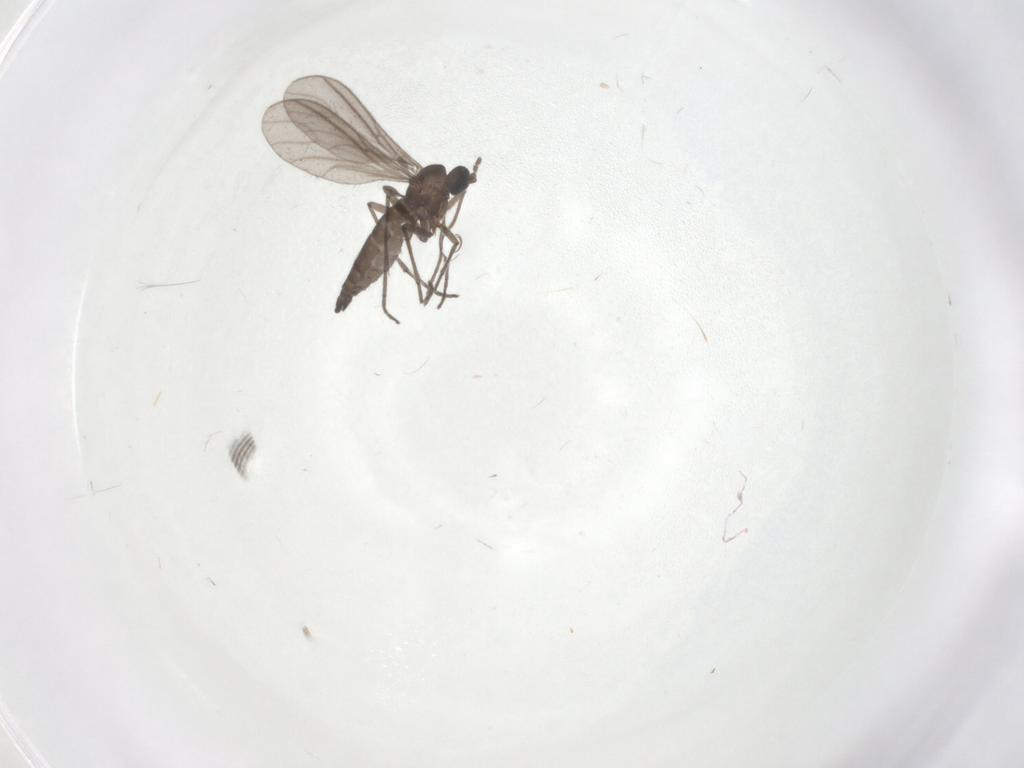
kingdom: Animalia
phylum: Arthropoda
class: Insecta
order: Diptera
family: Sciaridae
